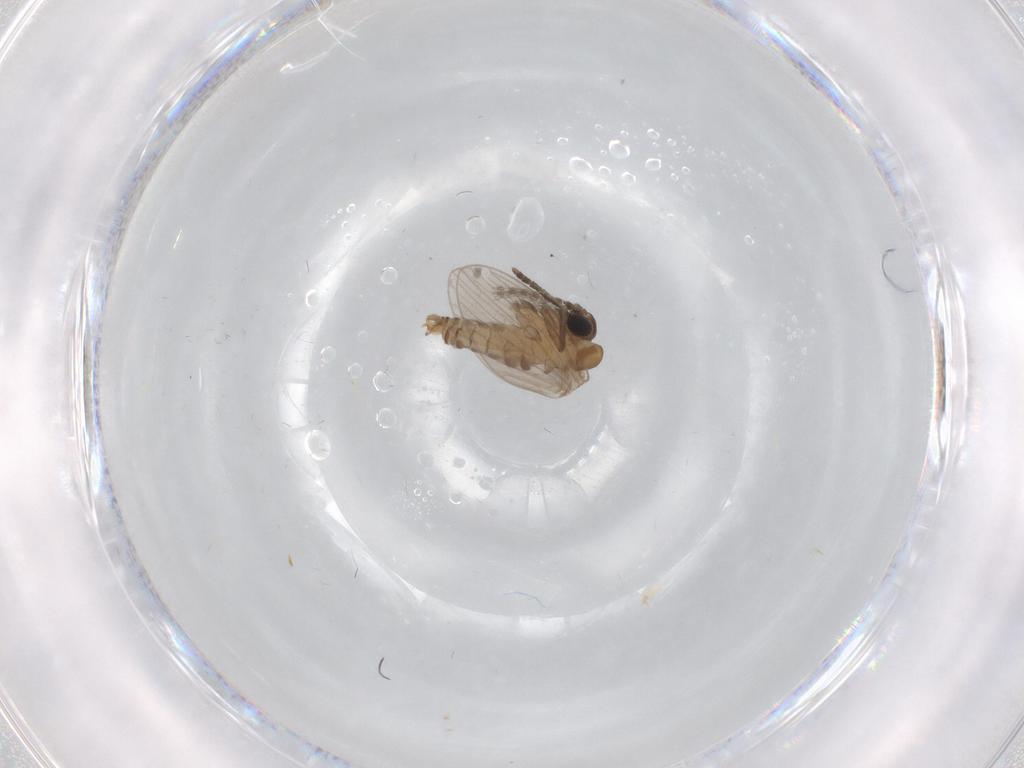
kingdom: Animalia
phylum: Arthropoda
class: Insecta
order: Diptera
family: Psychodidae
